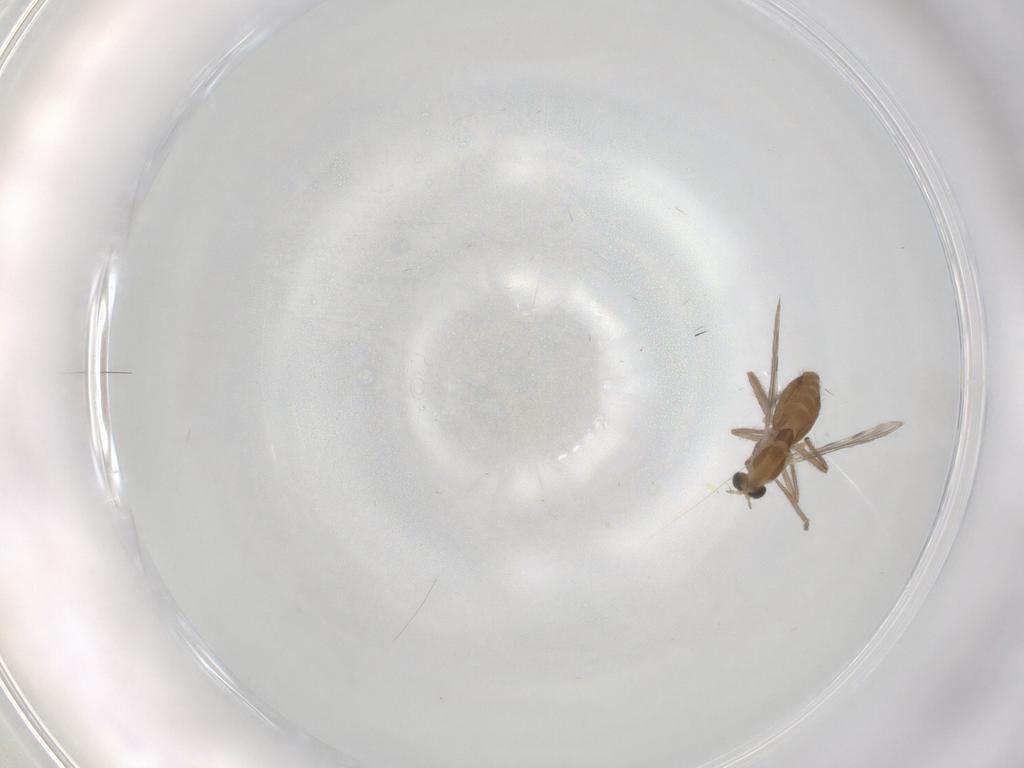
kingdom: Animalia
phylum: Arthropoda
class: Insecta
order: Diptera
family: Chironomidae
